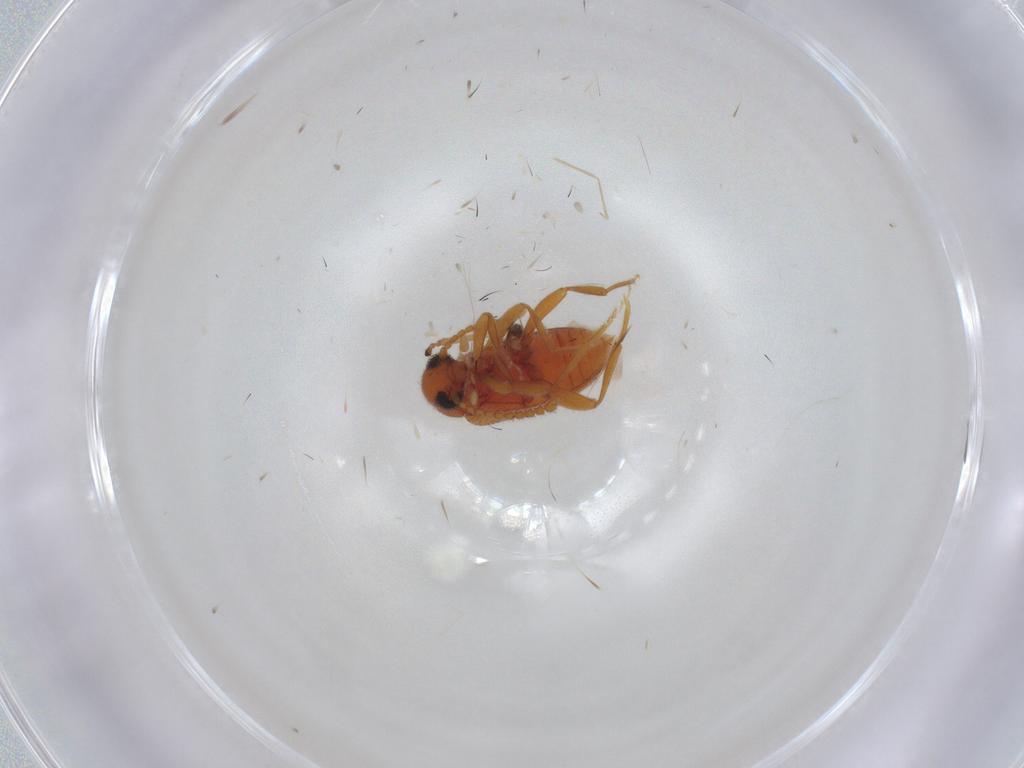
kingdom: Animalia
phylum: Arthropoda
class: Insecta
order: Coleoptera
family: Aderidae
